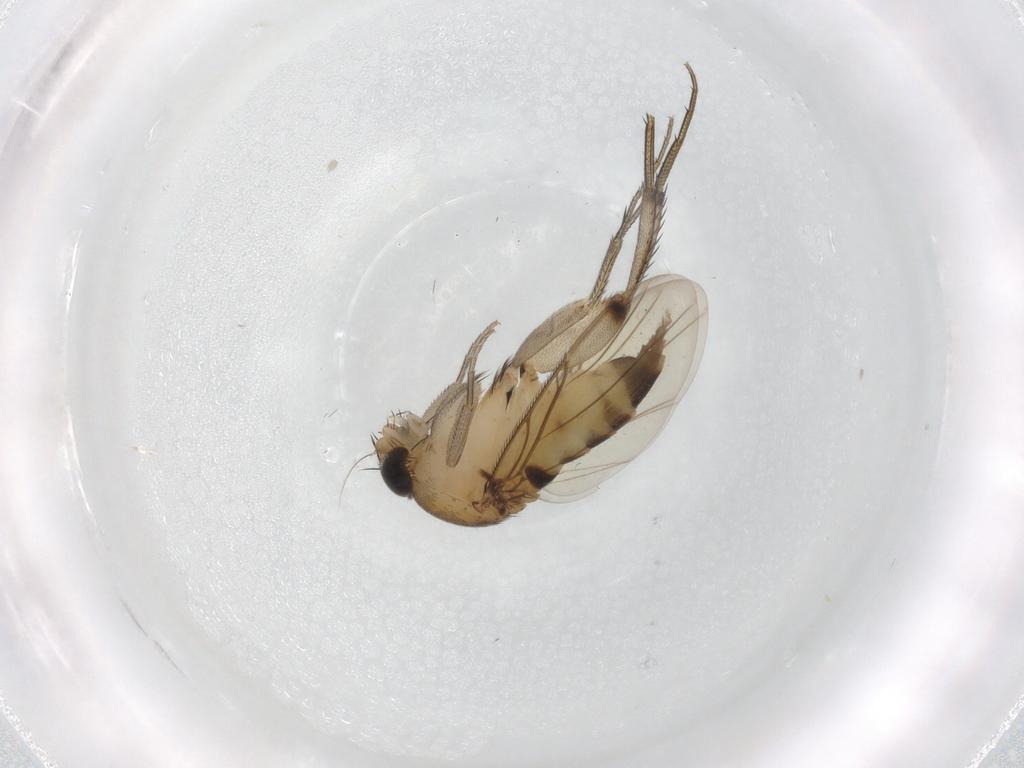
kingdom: Animalia
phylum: Arthropoda
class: Insecta
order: Diptera
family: Phoridae
